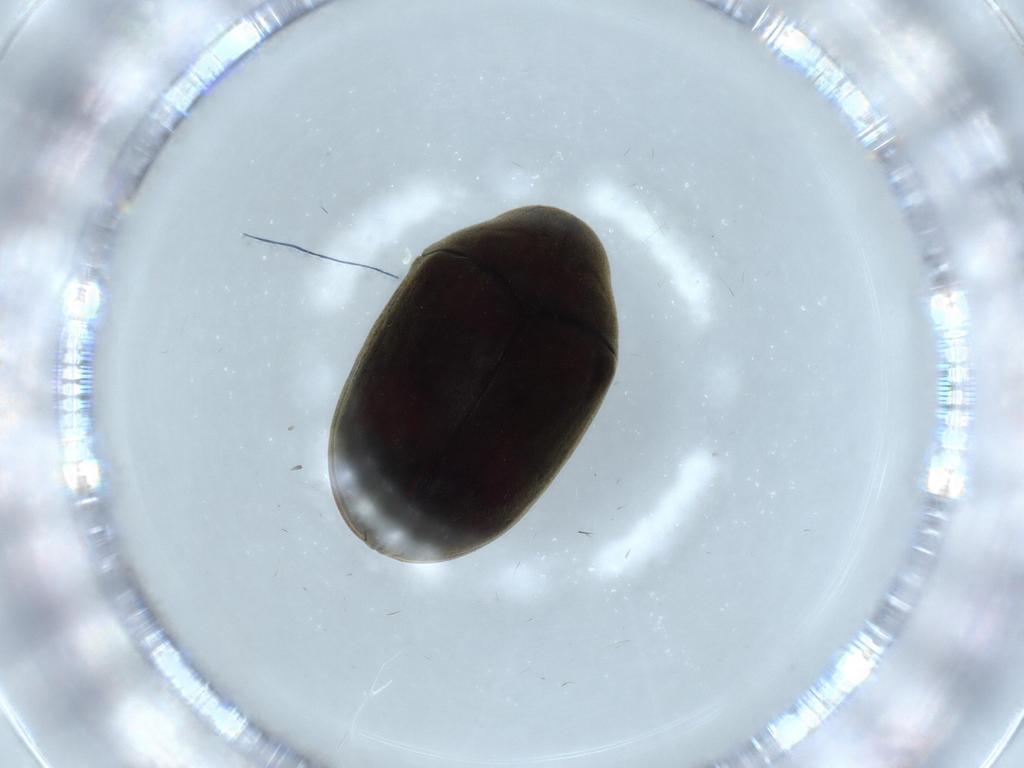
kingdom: Animalia
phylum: Arthropoda
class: Insecta
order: Coleoptera
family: Ptinidae
